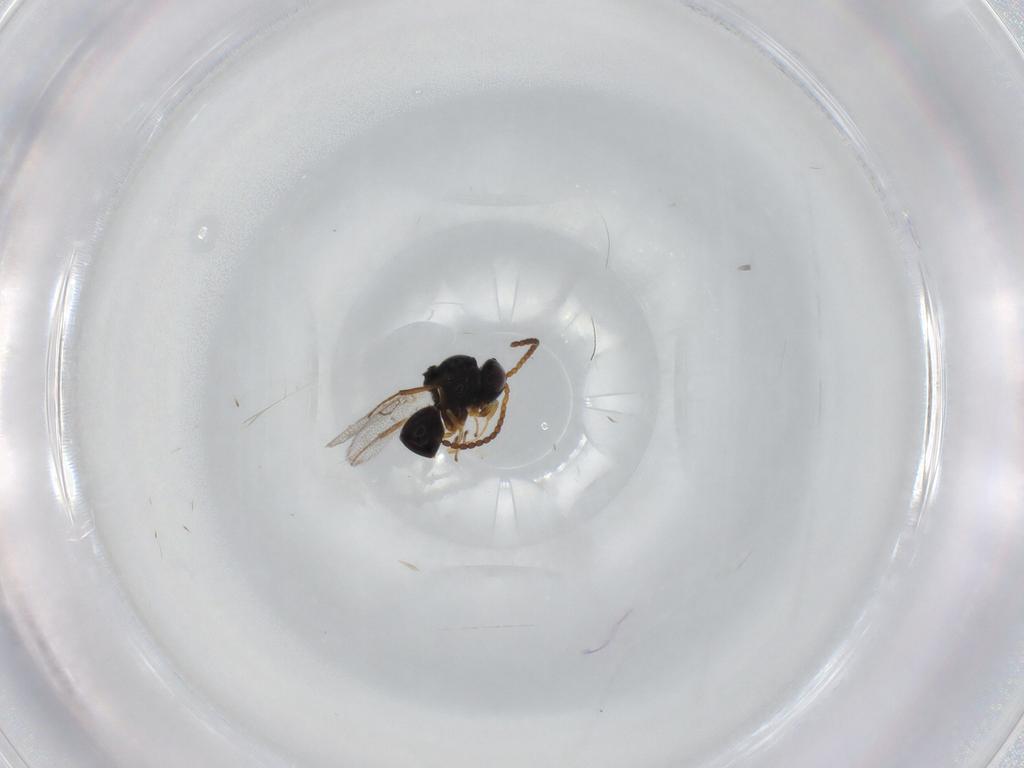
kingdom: Animalia
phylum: Arthropoda
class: Insecta
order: Hymenoptera
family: Figitidae
